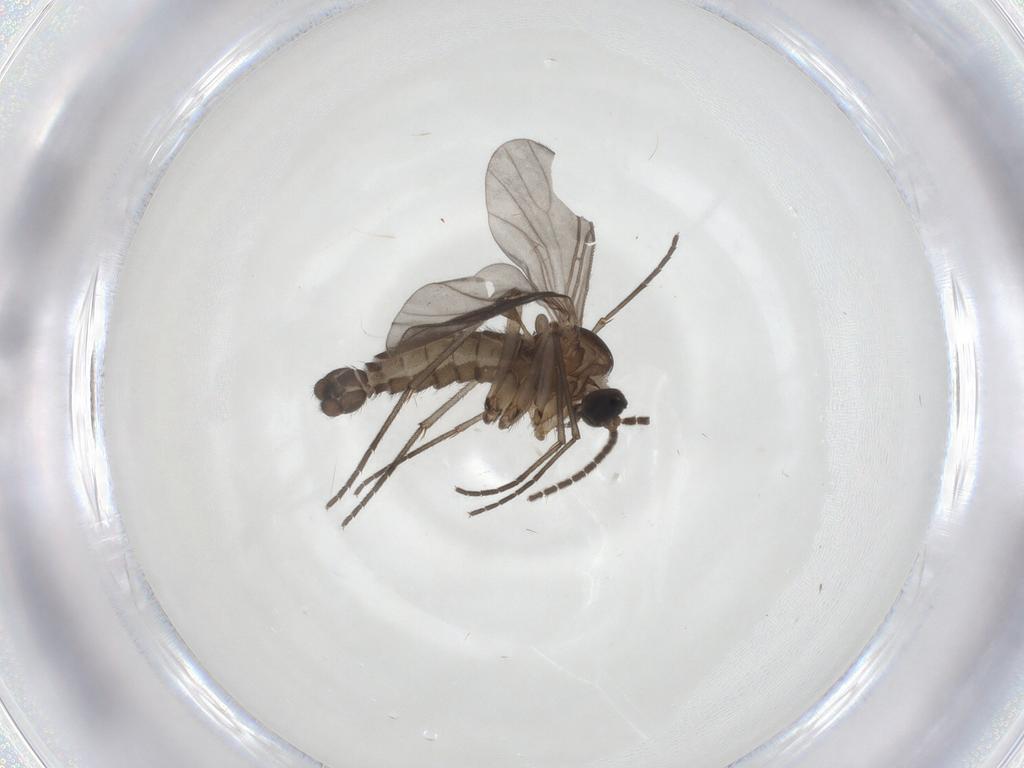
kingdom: Animalia
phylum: Arthropoda
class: Insecta
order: Diptera
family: Sciaridae
